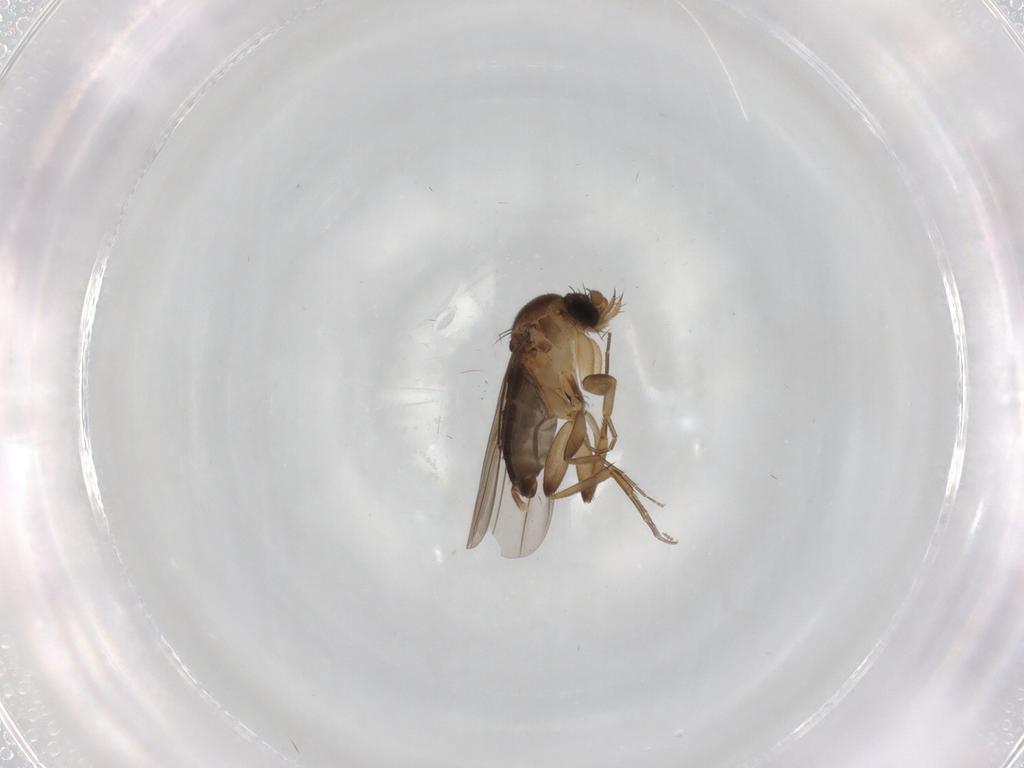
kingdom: Animalia
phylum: Arthropoda
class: Insecta
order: Diptera
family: Phoridae
